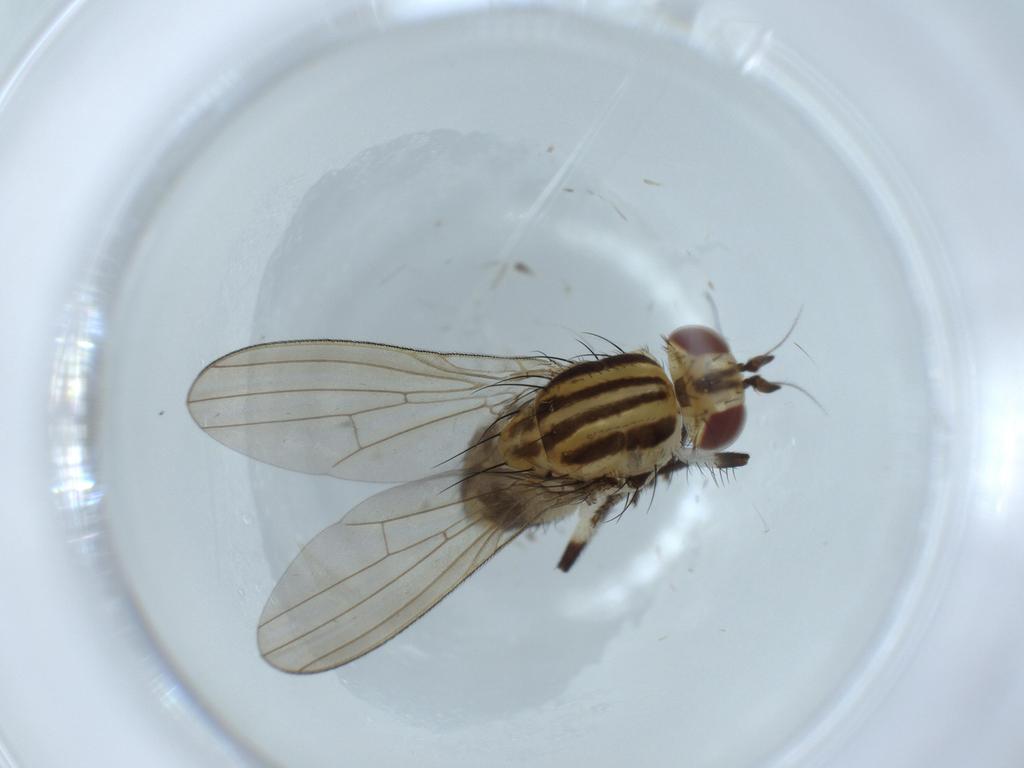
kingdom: Animalia
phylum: Arthropoda
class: Insecta
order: Diptera
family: Lauxaniidae
